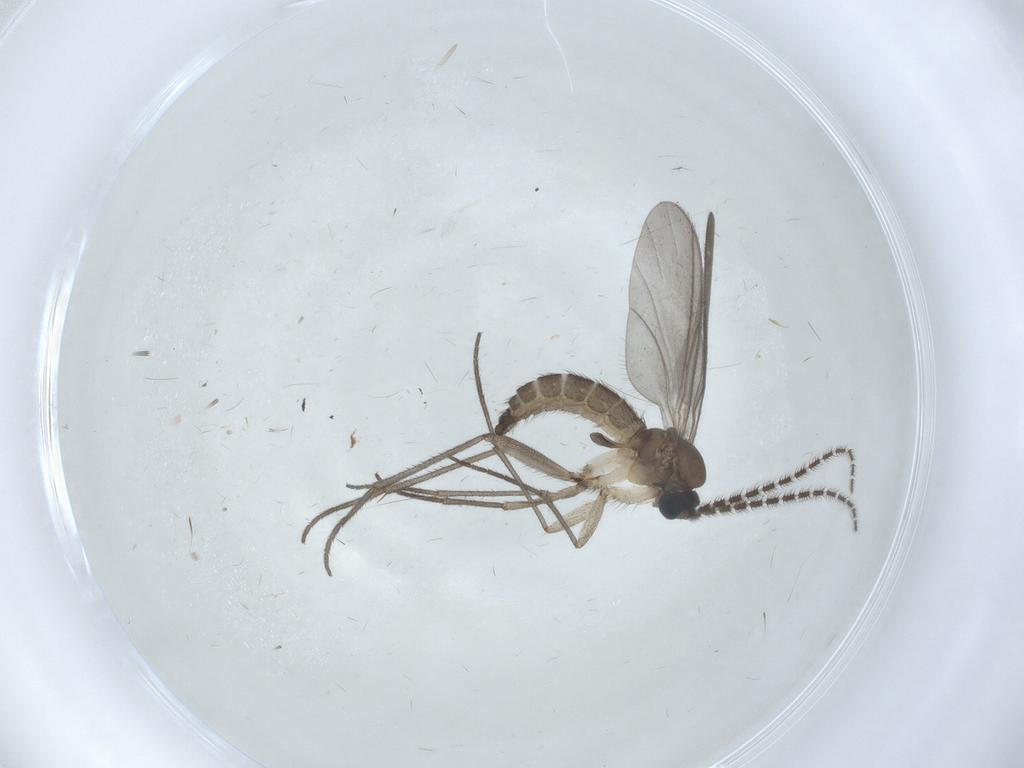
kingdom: Animalia
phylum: Arthropoda
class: Insecta
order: Diptera
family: Sciaridae
